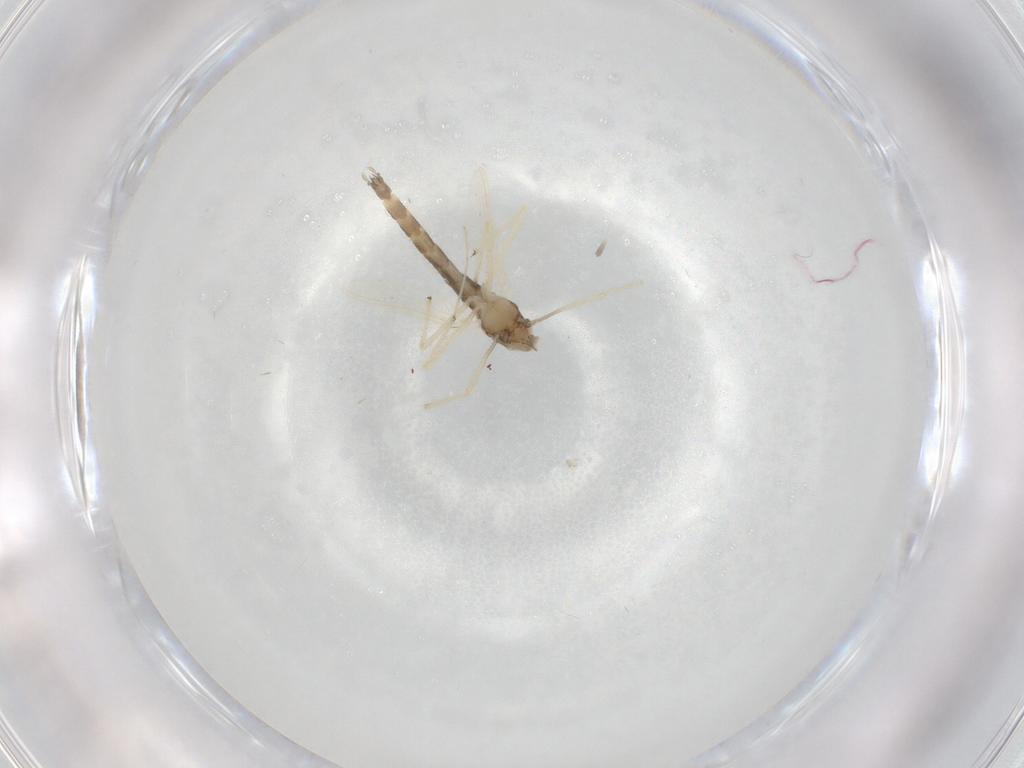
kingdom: Animalia
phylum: Arthropoda
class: Insecta
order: Diptera
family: Chironomidae
